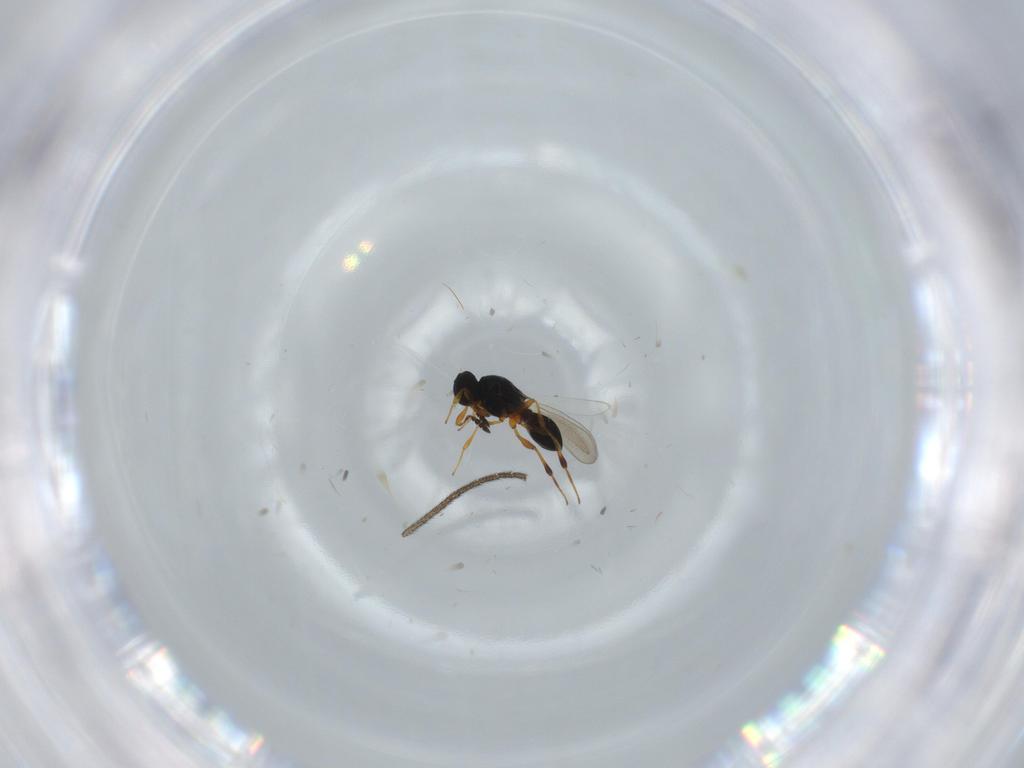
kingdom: Animalia
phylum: Arthropoda
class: Insecta
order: Hymenoptera
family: Platygastridae
